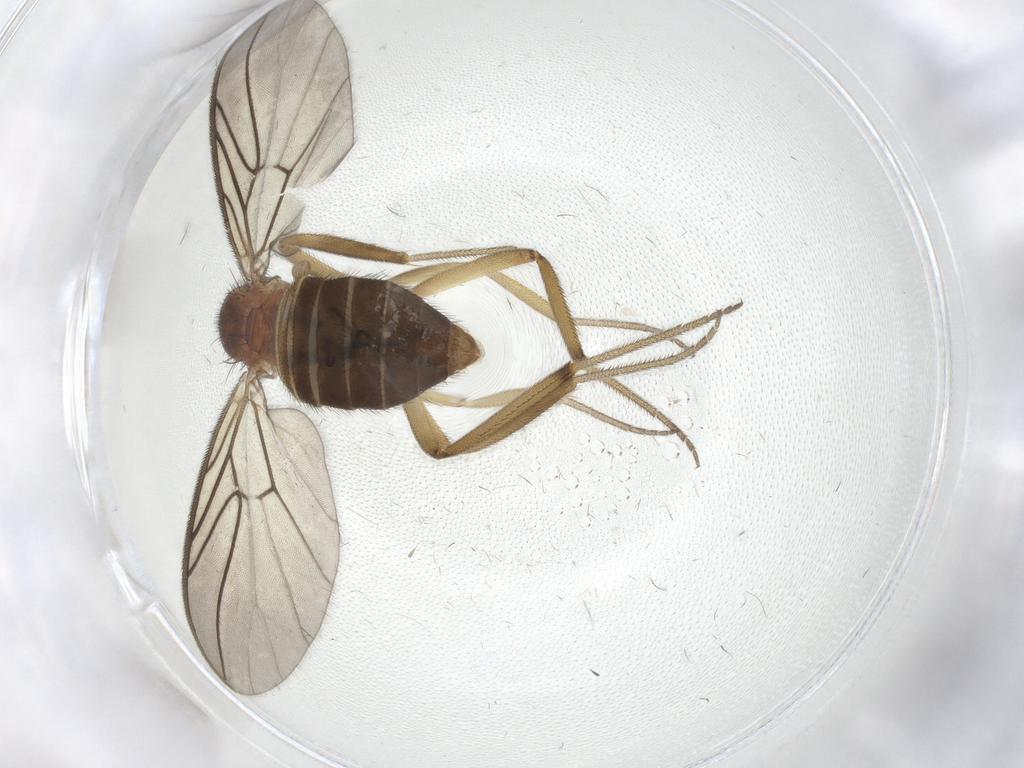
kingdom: Animalia
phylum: Arthropoda
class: Insecta
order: Diptera
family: Anisopodidae
